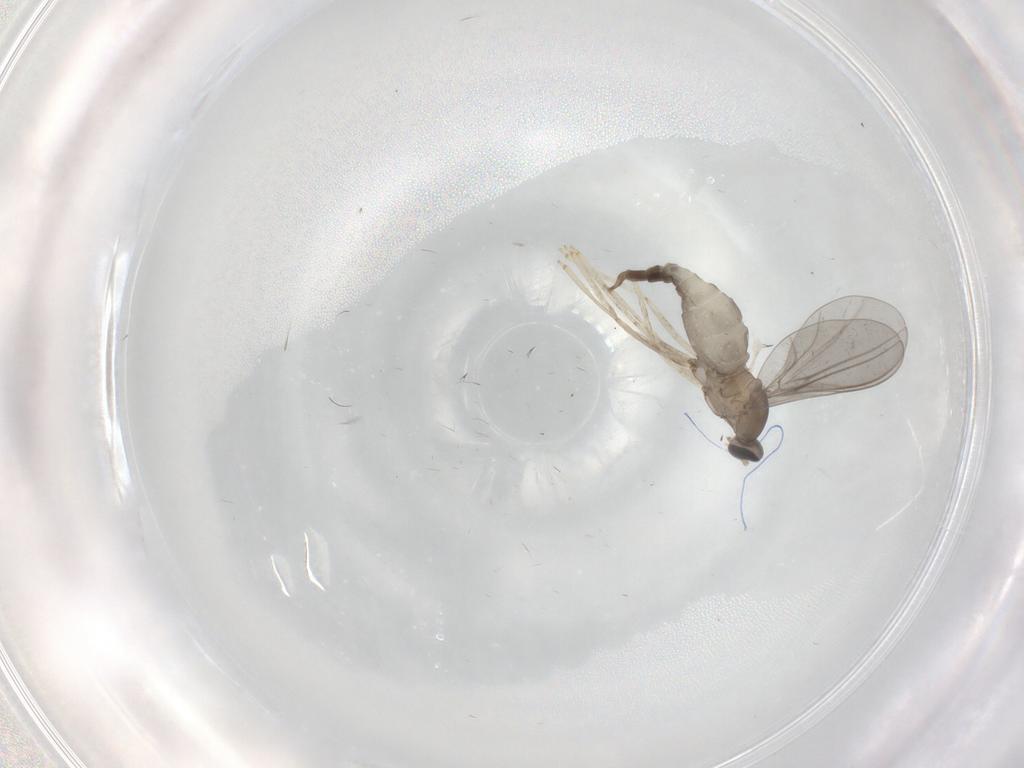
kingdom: Animalia
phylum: Arthropoda
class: Insecta
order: Diptera
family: Cecidomyiidae
